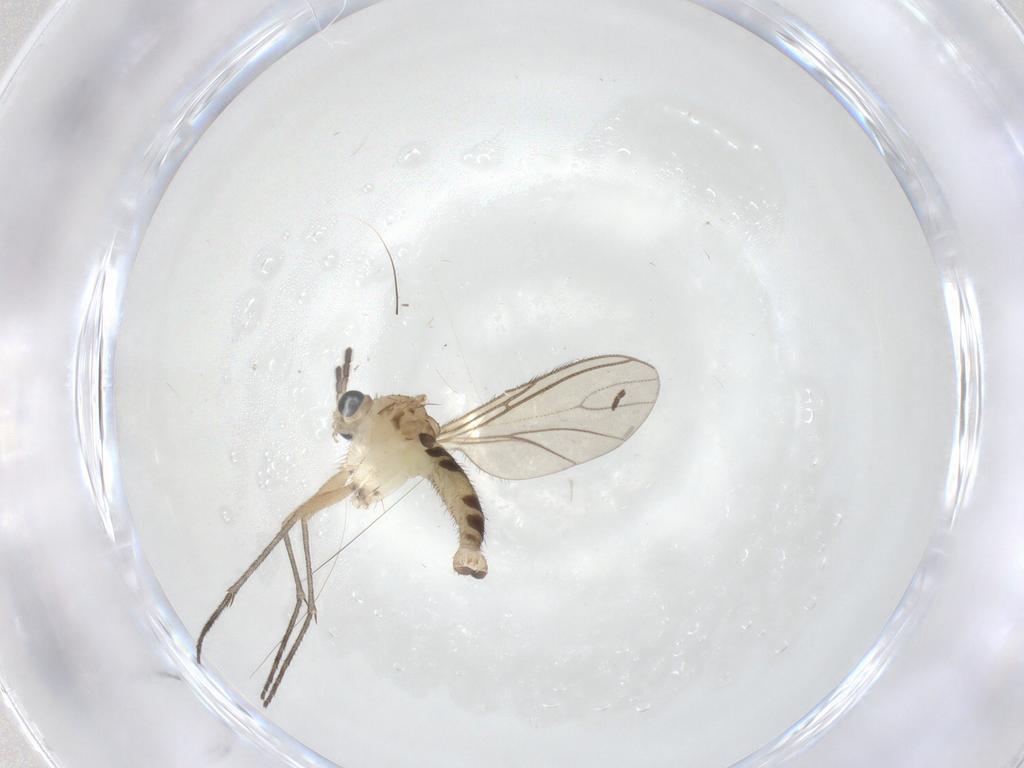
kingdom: Animalia
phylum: Arthropoda
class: Insecta
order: Diptera
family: Sciaridae
